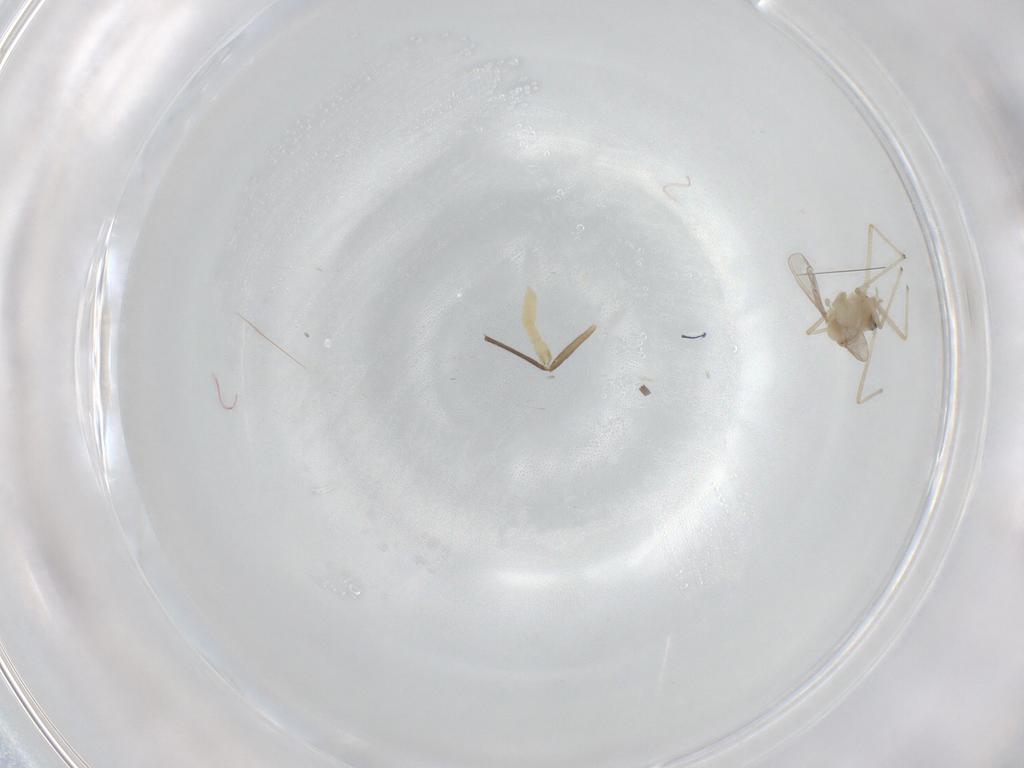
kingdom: Animalia
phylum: Arthropoda
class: Insecta
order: Diptera
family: Chironomidae
